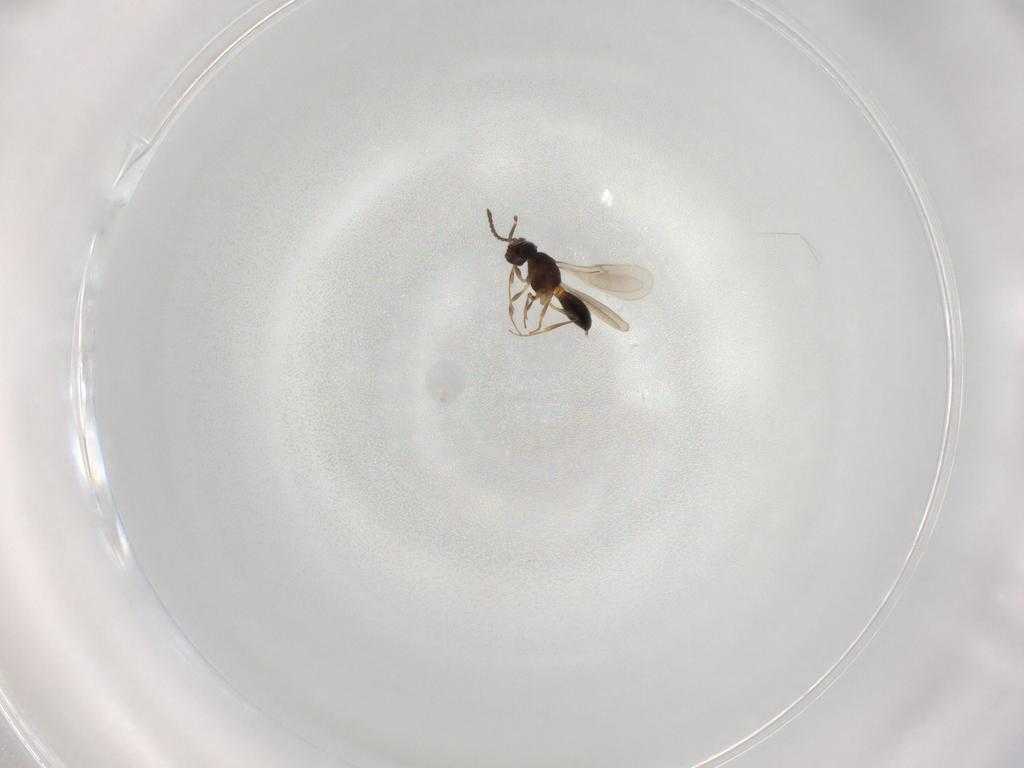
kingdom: Animalia
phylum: Arthropoda
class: Insecta
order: Hymenoptera
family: Scelionidae
